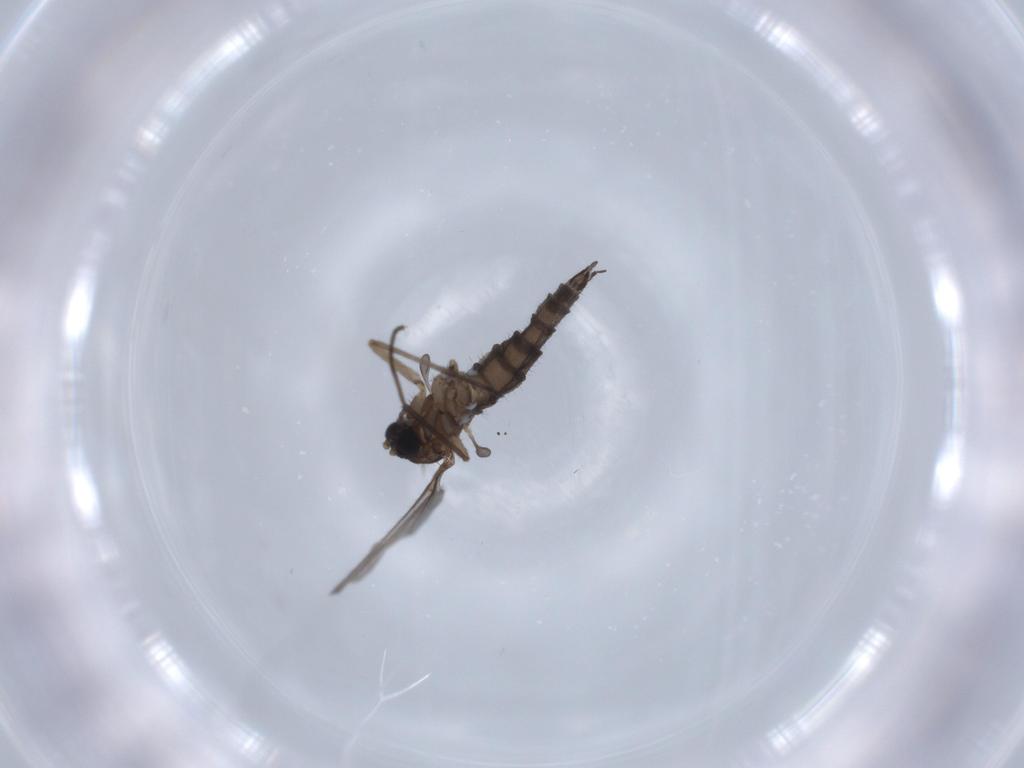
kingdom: Animalia
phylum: Arthropoda
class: Insecta
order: Diptera
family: Sciaridae
